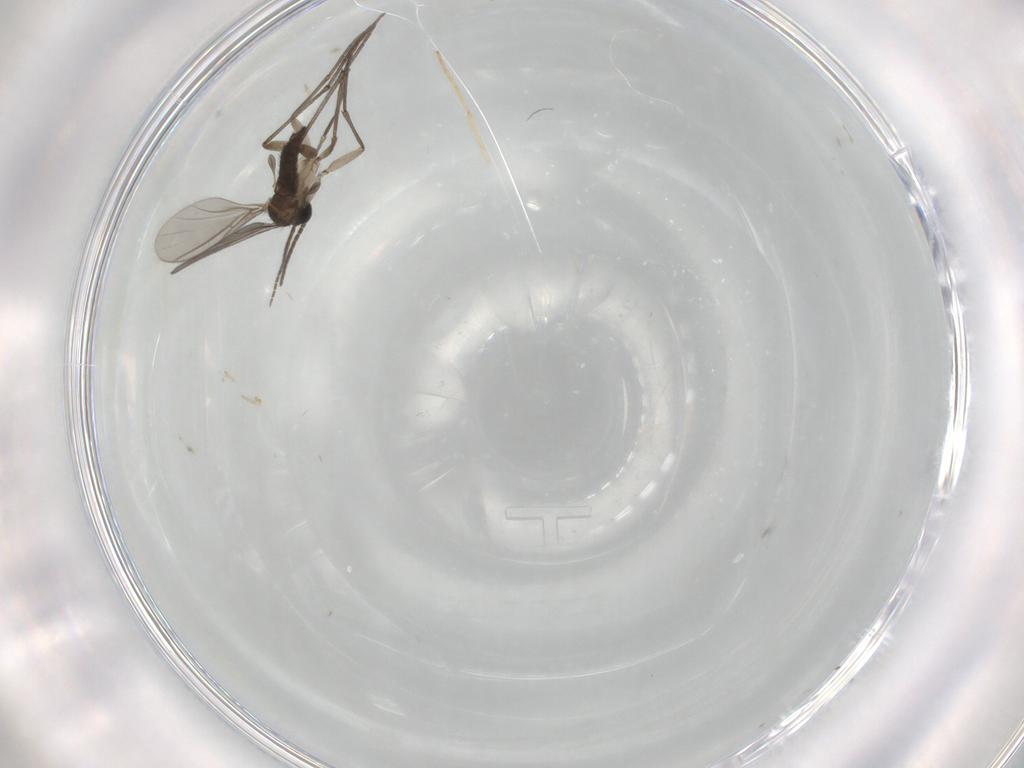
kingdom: Animalia
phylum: Arthropoda
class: Insecta
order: Diptera
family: Sciaridae
